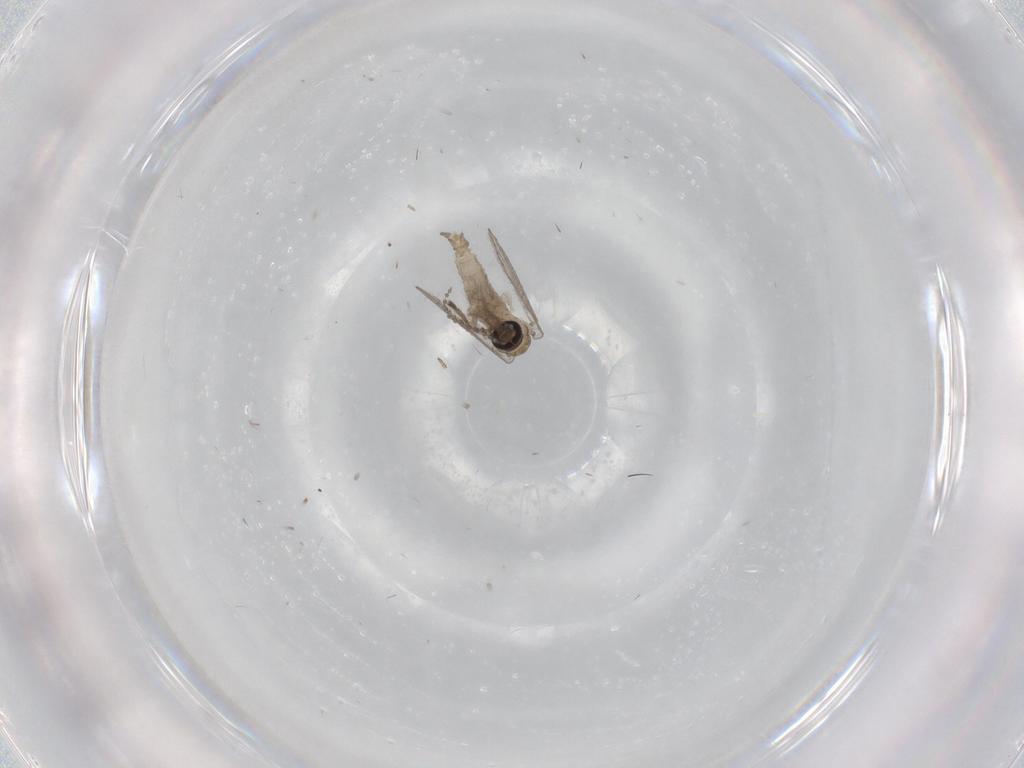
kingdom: Animalia
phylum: Arthropoda
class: Insecta
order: Diptera
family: Psychodidae
